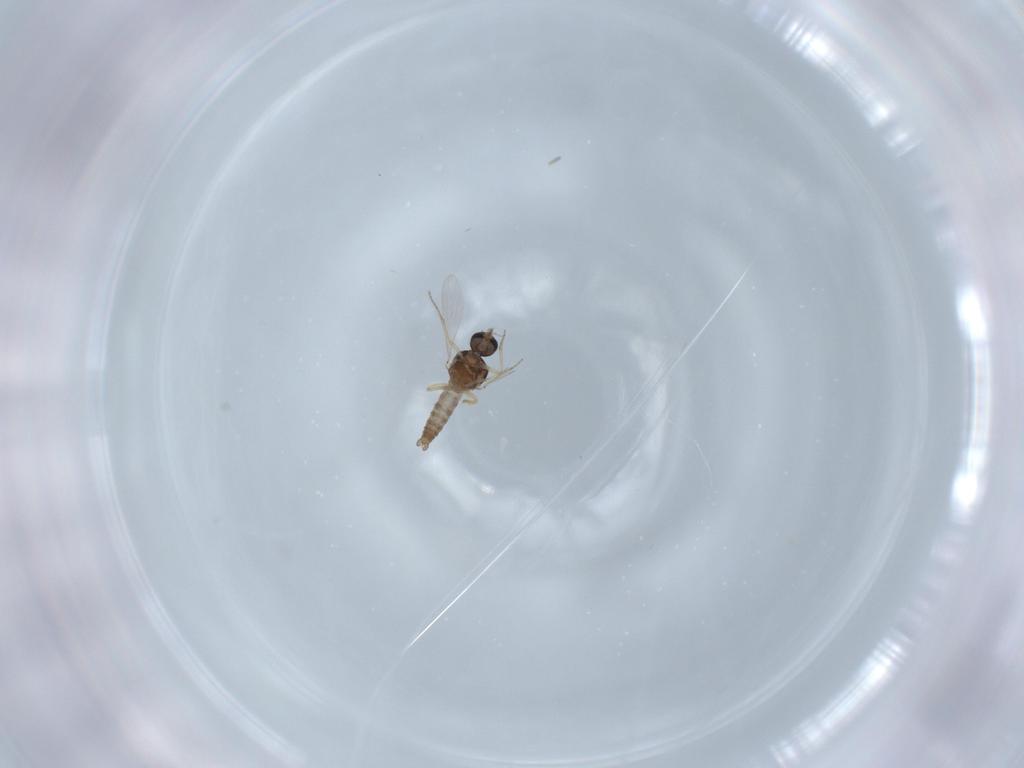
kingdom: Animalia
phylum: Arthropoda
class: Insecta
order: Diptera
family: Ceratopogonidae
